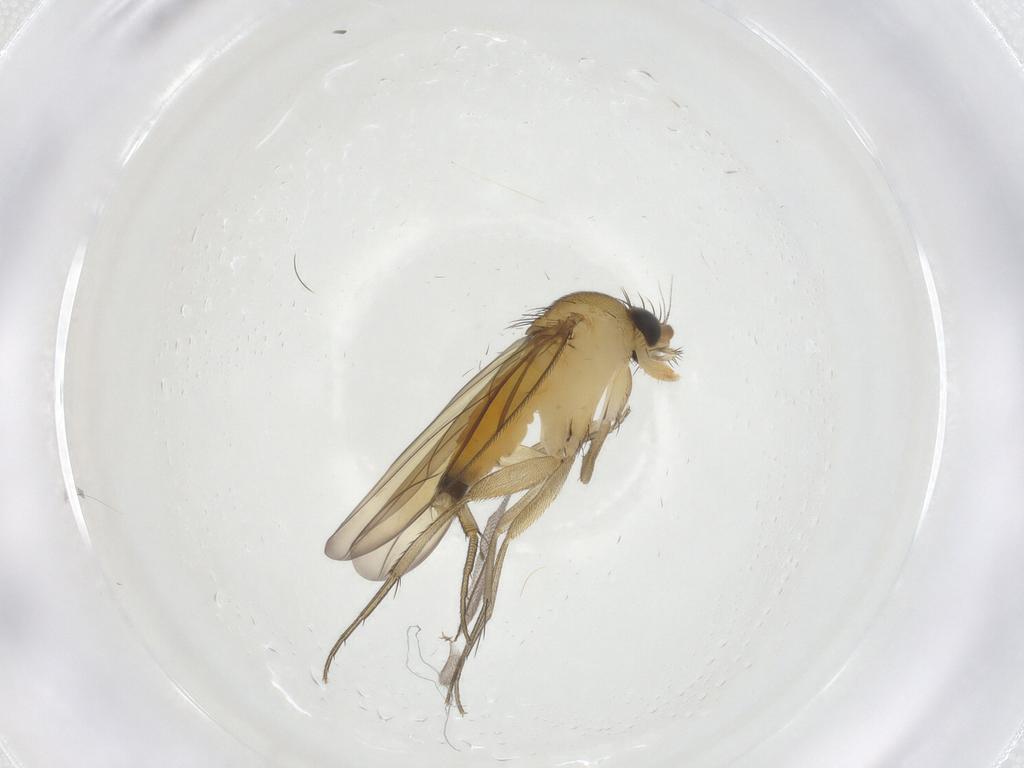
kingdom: Animalia
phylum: Arthropoda
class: Insecta
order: Diptera
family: Phoridae
